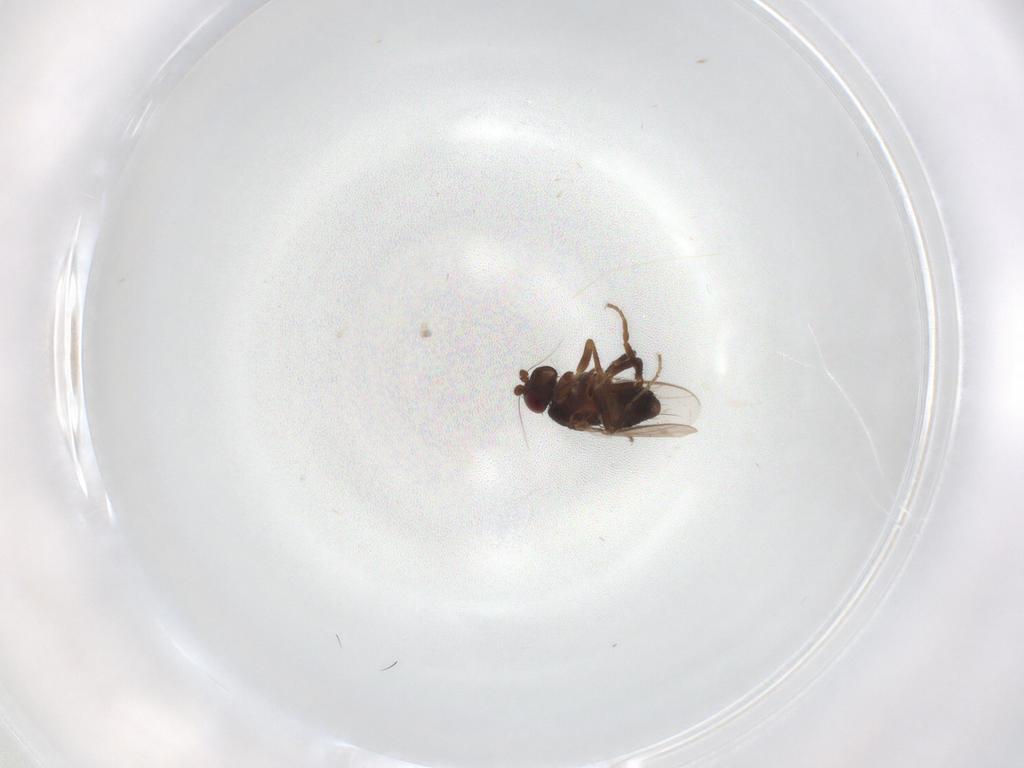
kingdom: Animalia
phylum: Arthropoda
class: Insecta
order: Diptera
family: Sphaeroceridae
